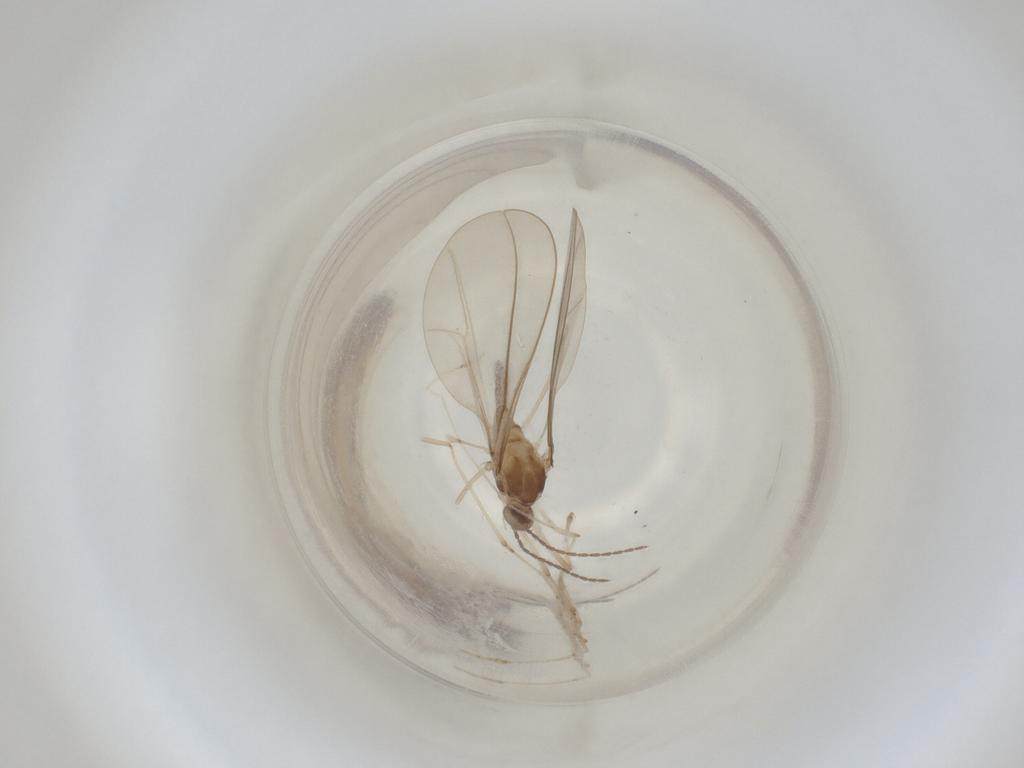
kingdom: Animalia
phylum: Arthropoda
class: Insecta
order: Diptera
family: Cecidomyiidae
